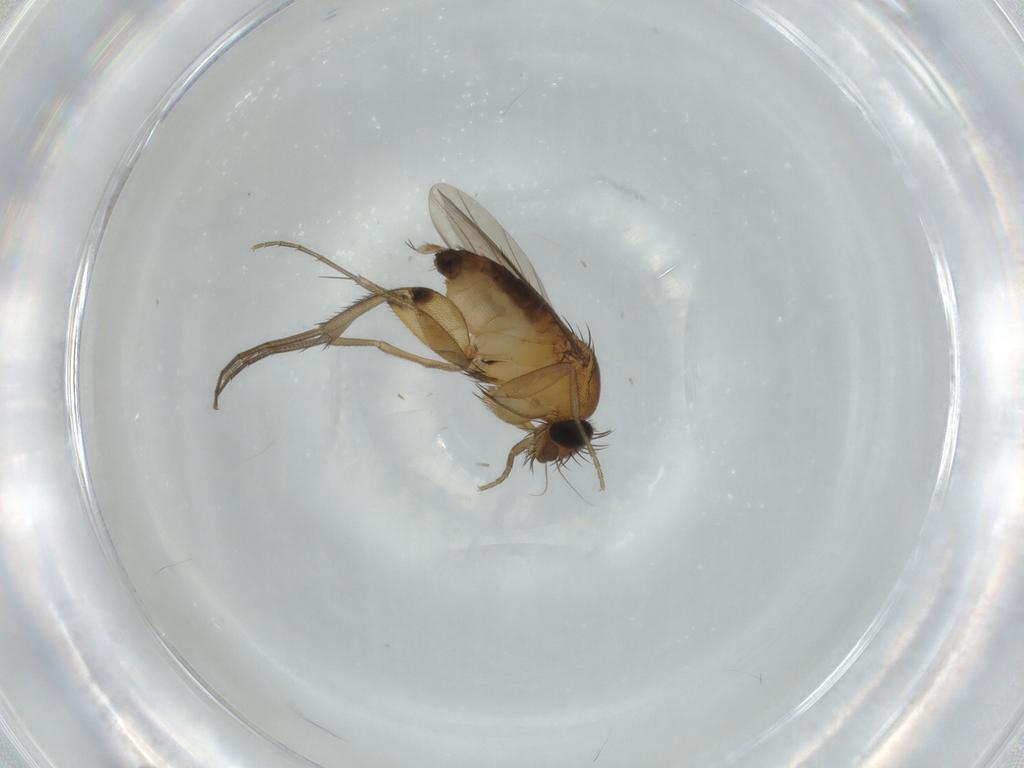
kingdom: Animalia
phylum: Arthropoda
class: Insecta
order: Diptera
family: Phoridae
